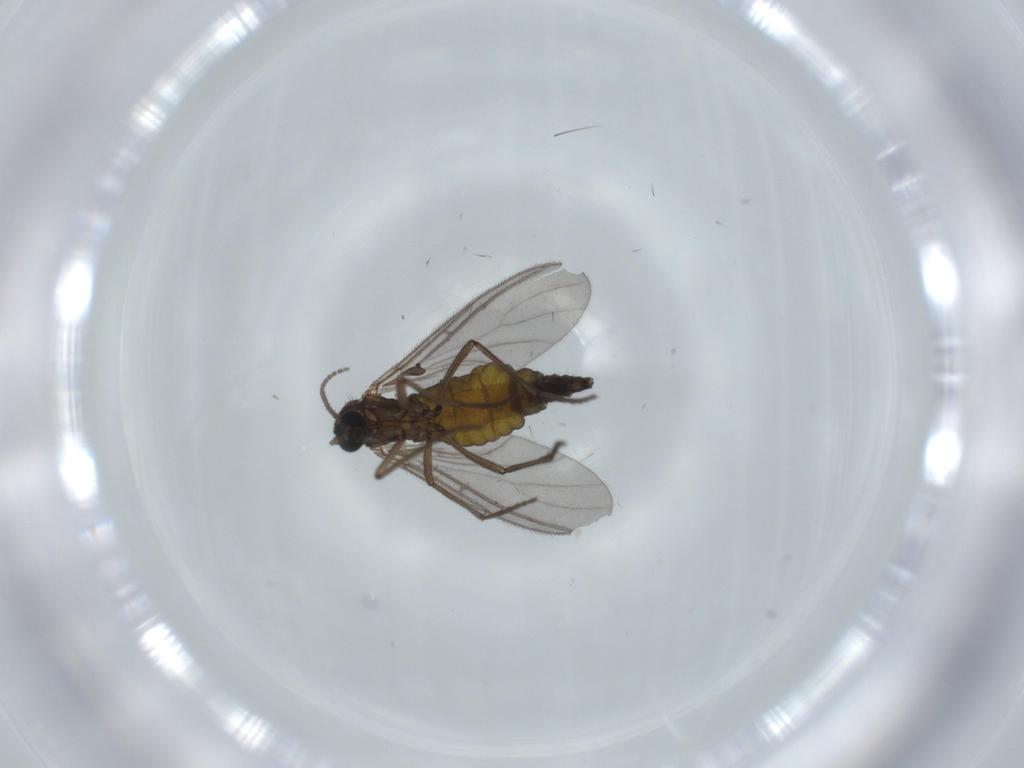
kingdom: Animalia
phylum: Arthropoda
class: Insecta
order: Diptera
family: Sciaridae
